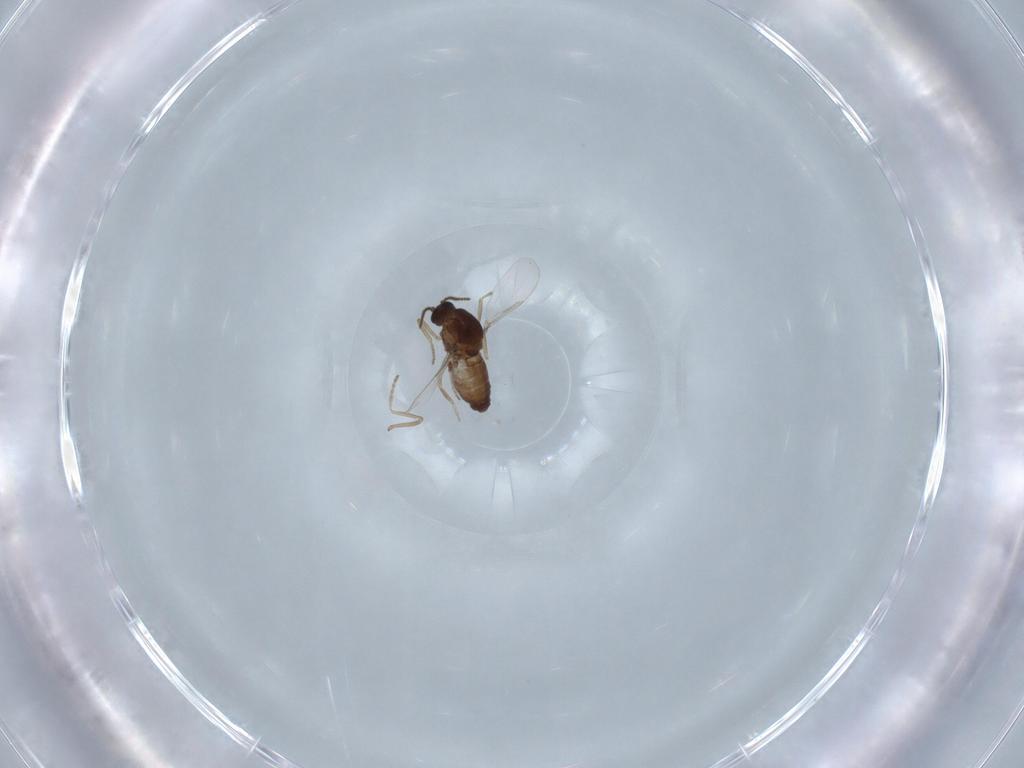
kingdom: Animalia
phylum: Arthropoda
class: Insecta
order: Diptera
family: Ceratopogonidae
